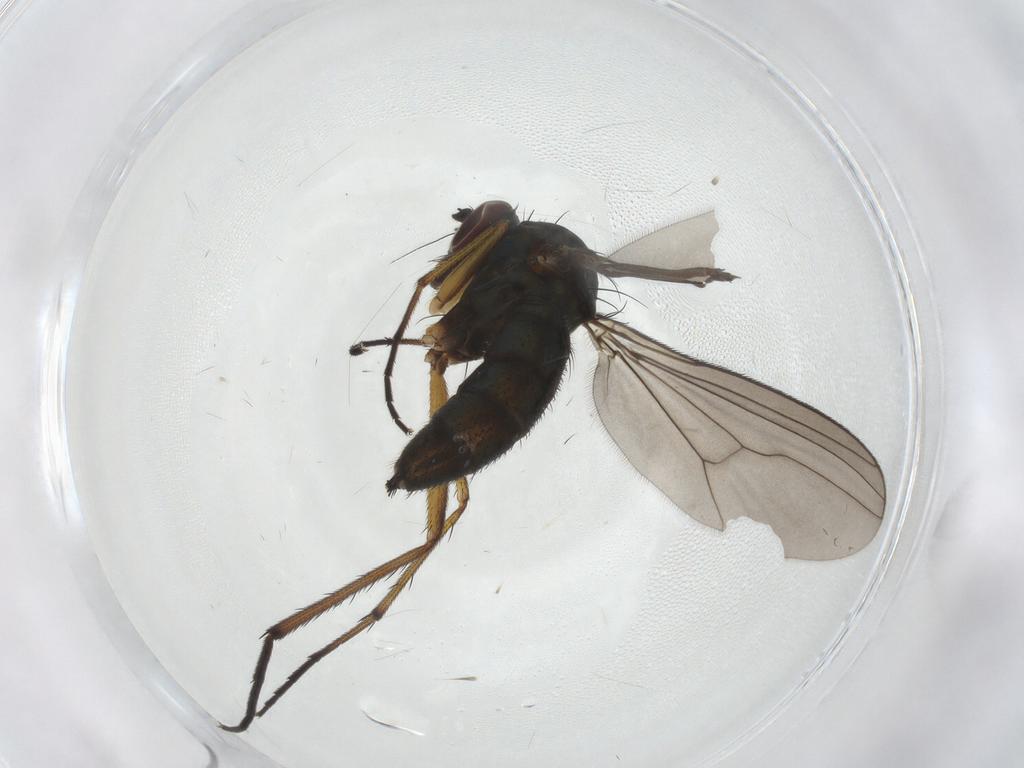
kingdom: Animalia
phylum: Arthropoda
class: Insecta
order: Diptera
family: Dolichopodidae
